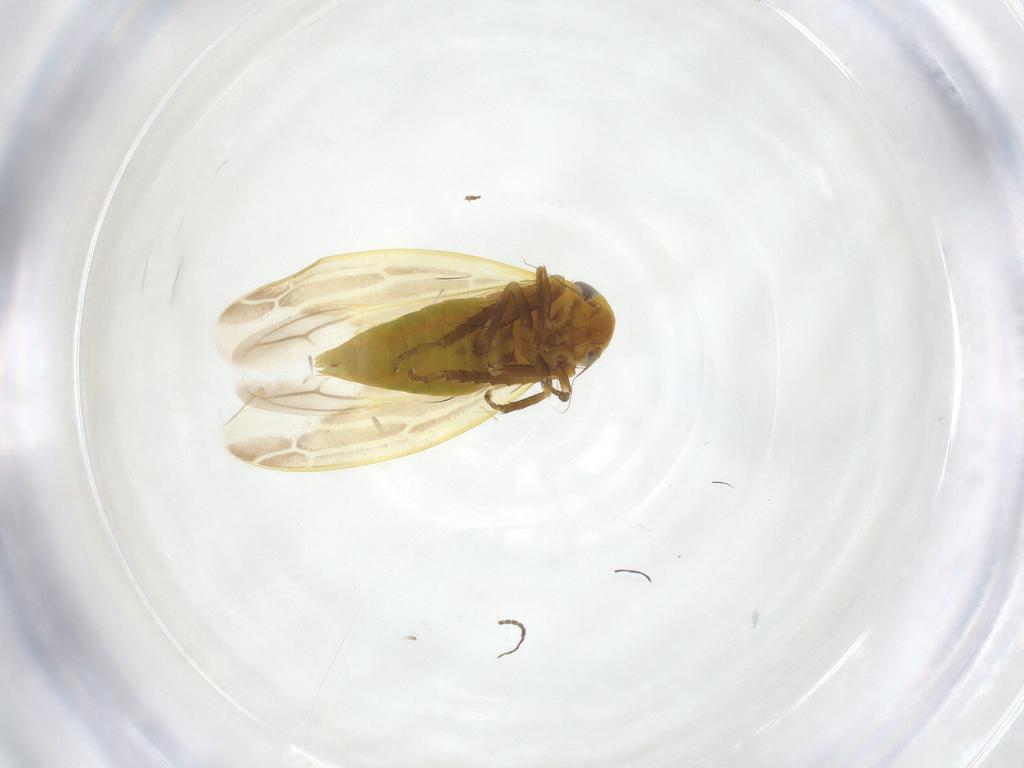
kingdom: Animalia
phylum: Arthropoda
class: Insecta
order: Hemiptera
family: Cicadellidae
